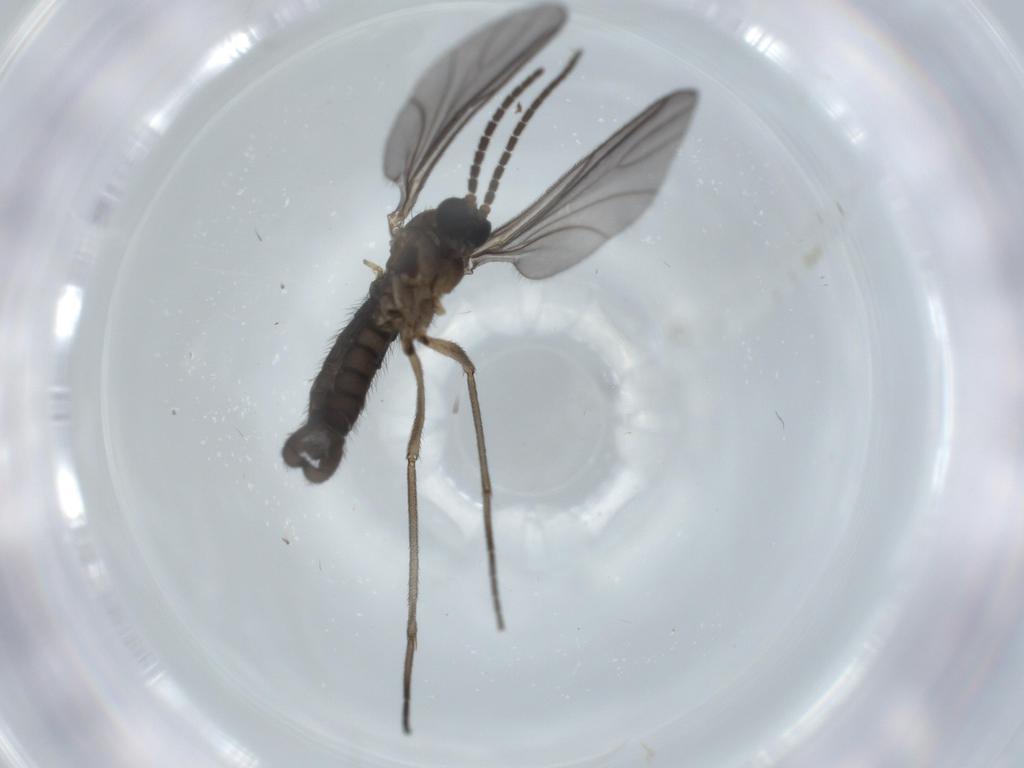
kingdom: Animalia
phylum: Arthropoda
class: Insecta
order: Diptera
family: Sciaridae
